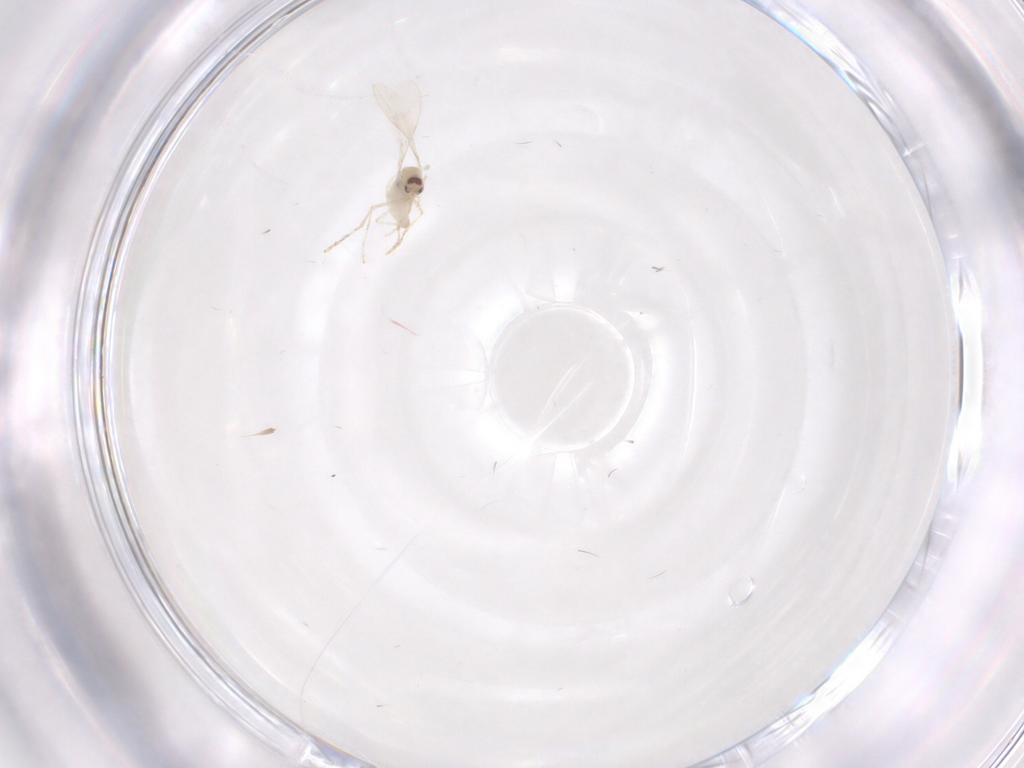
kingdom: Animalia
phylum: Arthropoda
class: Insecta
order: Diptera
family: Cecidomyiidae
